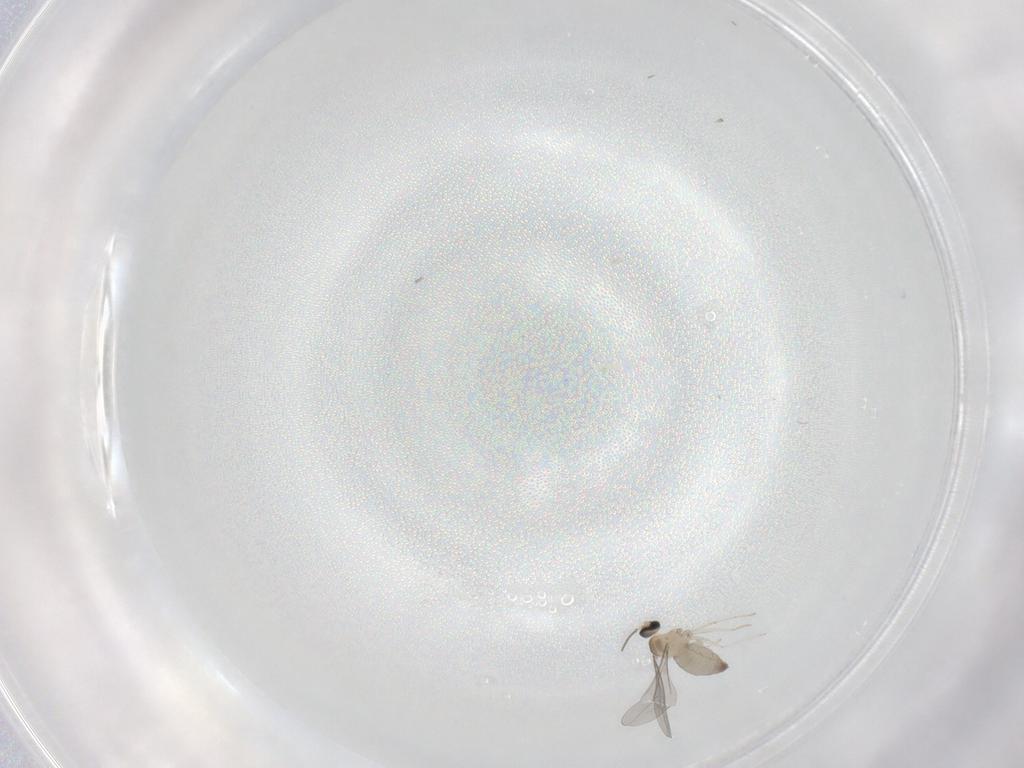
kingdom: Animalia
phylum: Arthropoda
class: Insecta
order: Diptera
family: Cecidomyiidae
